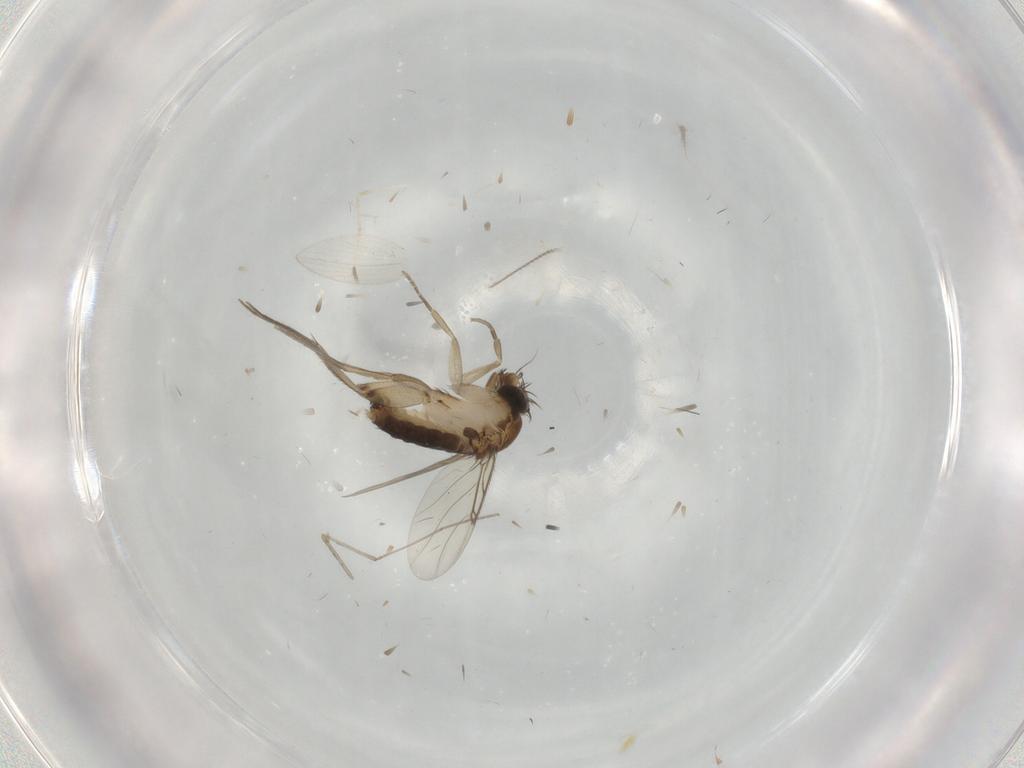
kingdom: Animalia
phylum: Arthropoda
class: Insecta
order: Diptera
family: Phoridae
